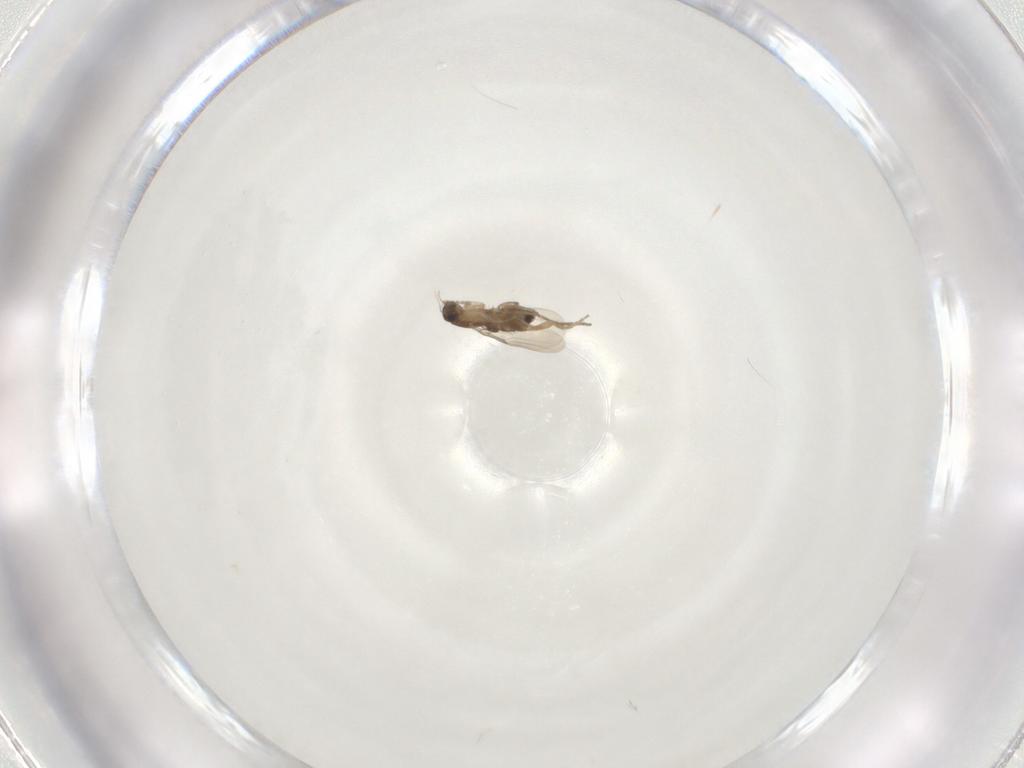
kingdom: Animalia
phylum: Arthropoda
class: Insecta
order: Diptera
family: Phoridae
